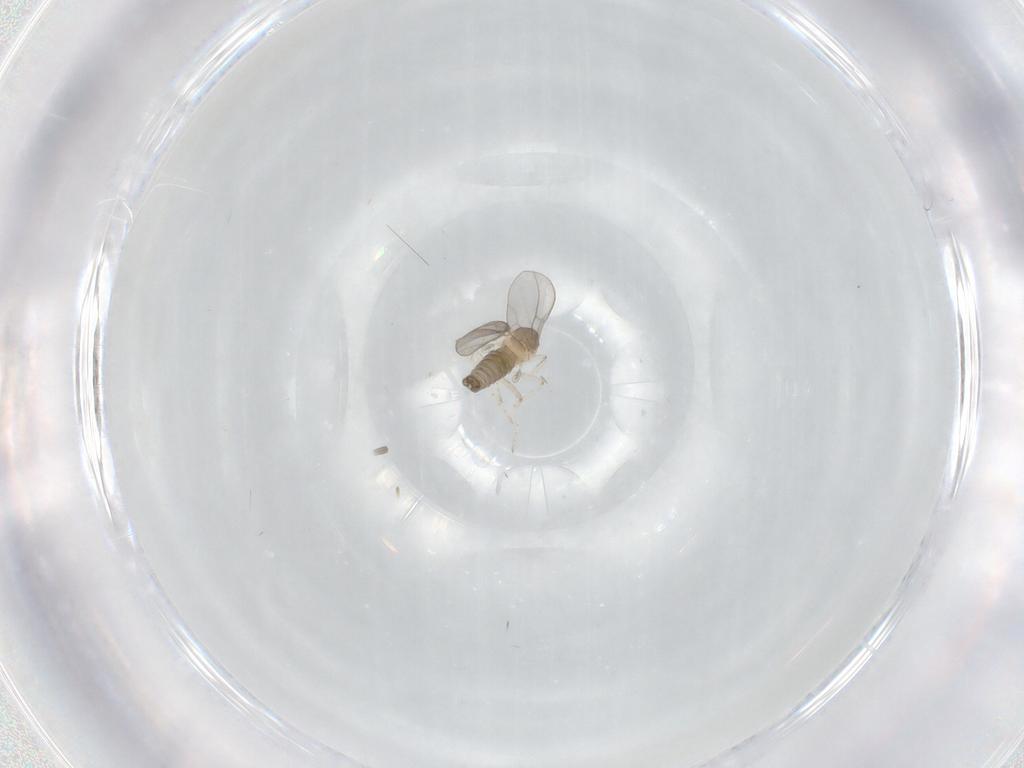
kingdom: Animalia
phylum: Arthropoda
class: Insecta
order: Diptera
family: Cecidomyiidae
